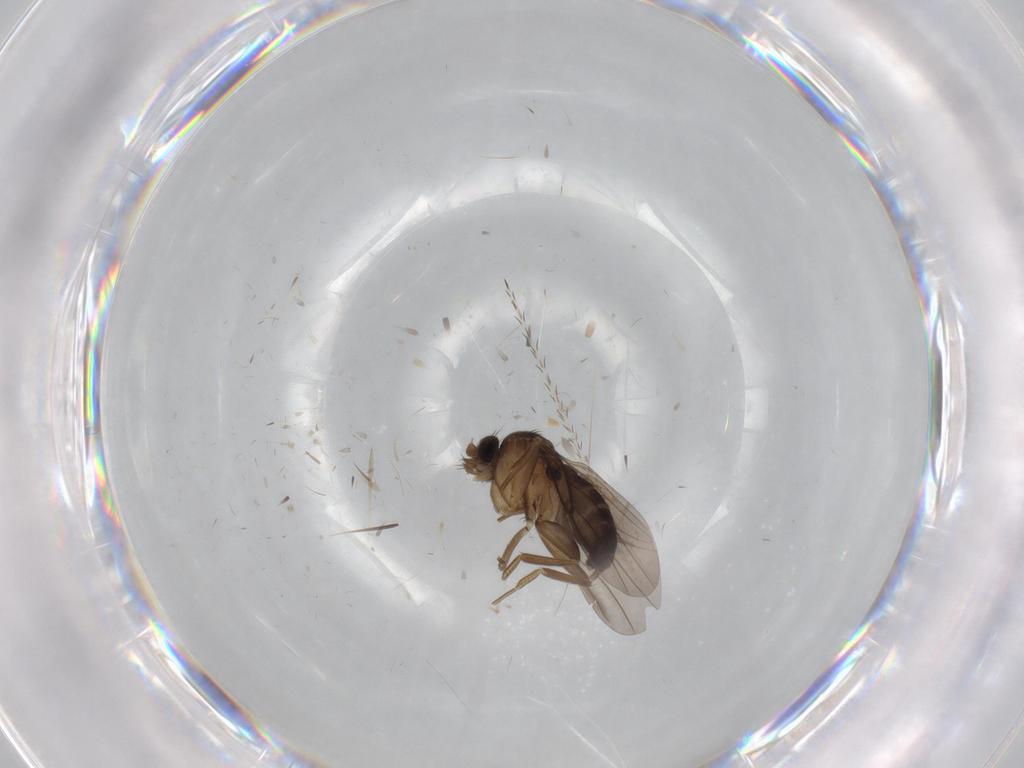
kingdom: Animalia
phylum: Arthropoda
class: Insecta
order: Diptera
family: Phoridae
